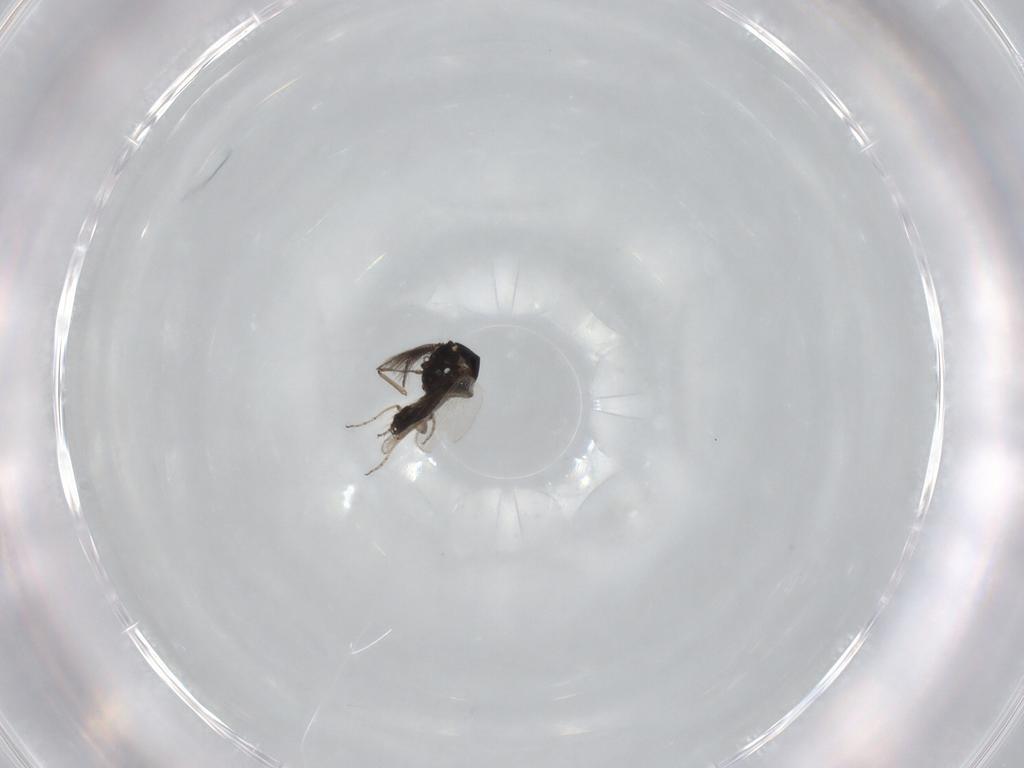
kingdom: Animalia
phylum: Arthropoda
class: Insecta
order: Diptera
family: Ceratopogonidae
